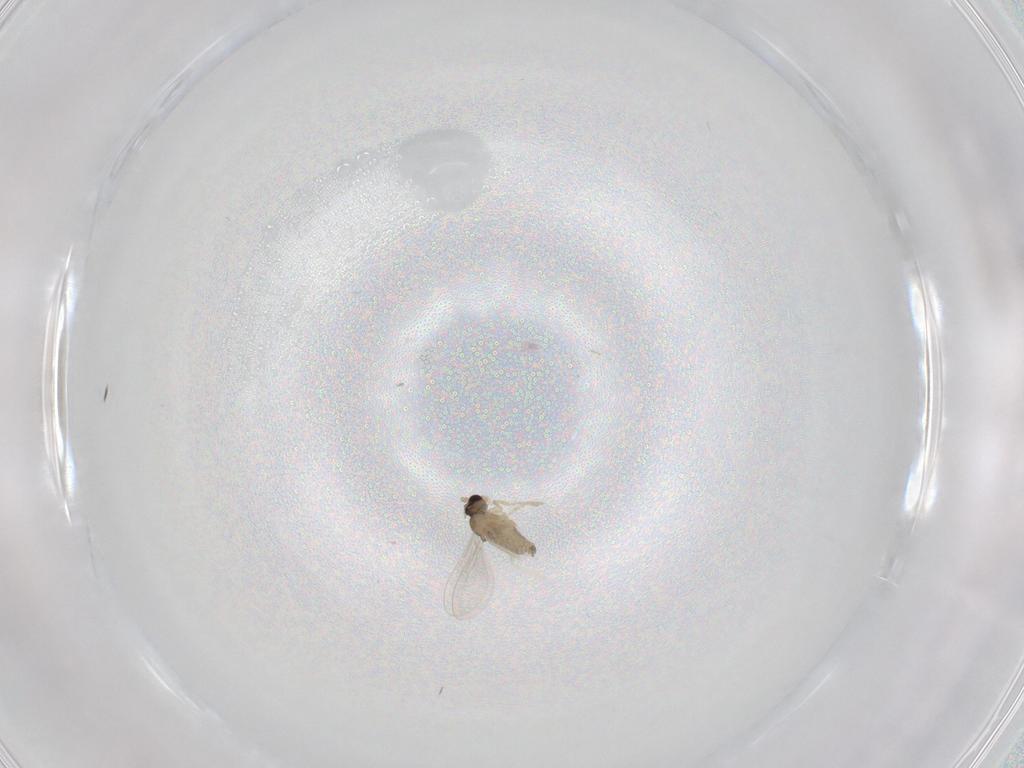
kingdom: Animalia
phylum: Arthropoda
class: Insecta
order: Diptera
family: Cecidomyiidae
